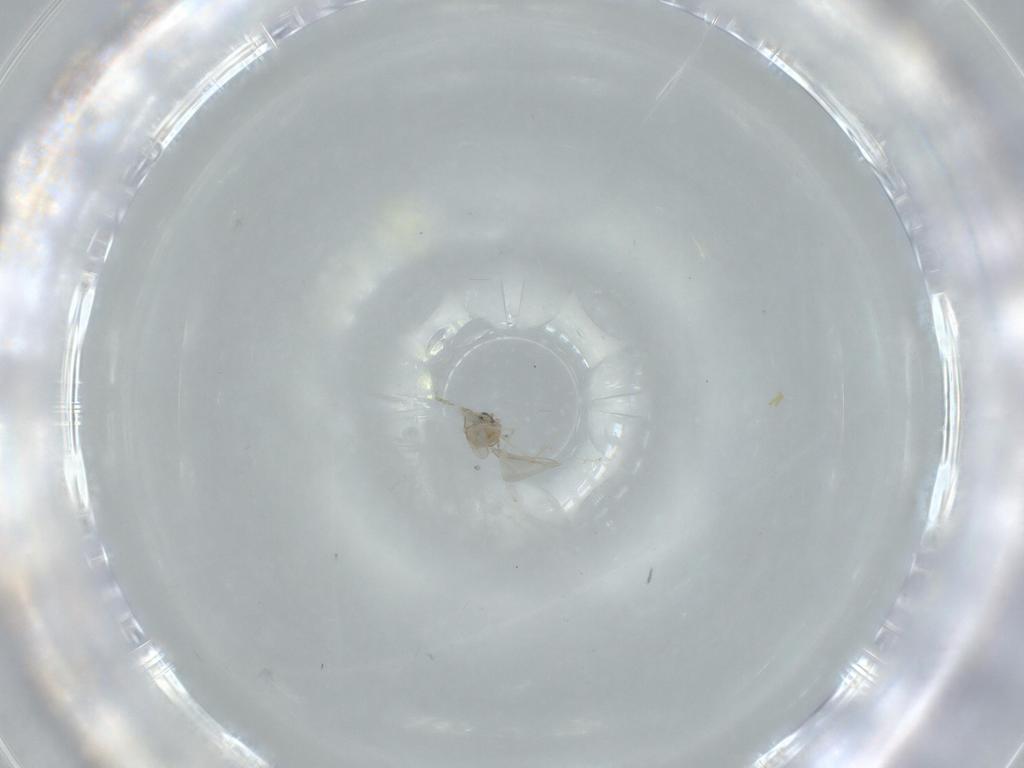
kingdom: Animalia
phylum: Arthropoda
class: Insecta
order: Diptera
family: Cecidomyiidae
